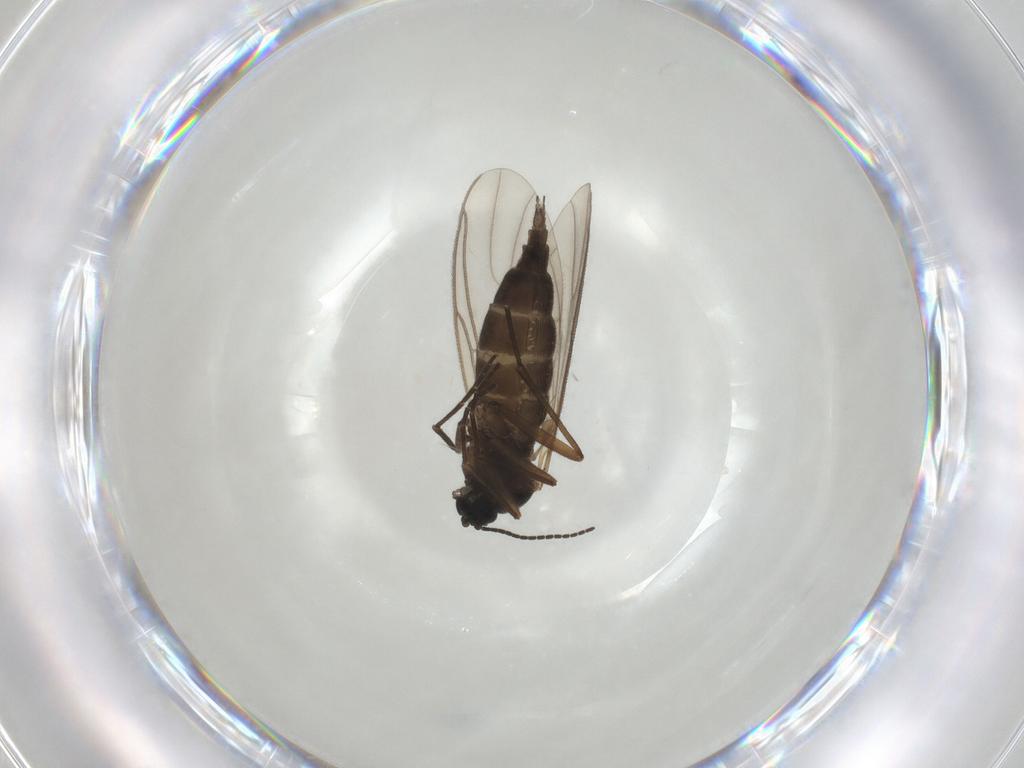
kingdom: Animalia
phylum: Arthropoda
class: Insecta
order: Diptera
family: Sciaridae
